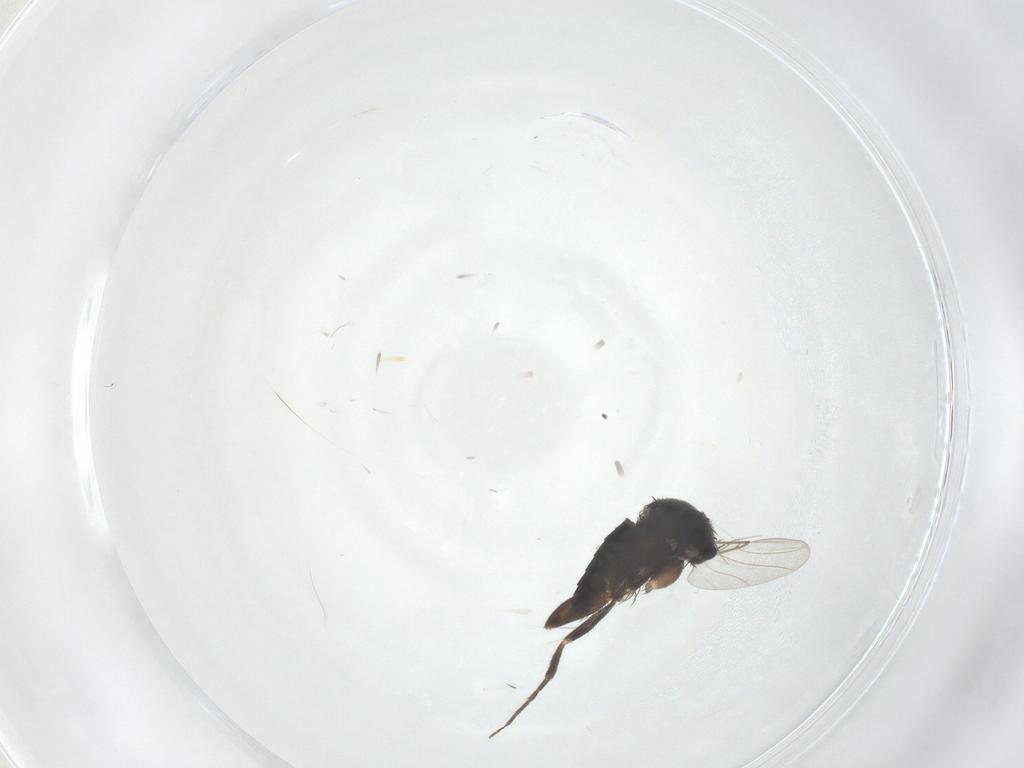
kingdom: Animalia
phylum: Arthropoda
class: Insecta
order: Diptera
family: Phoridae
